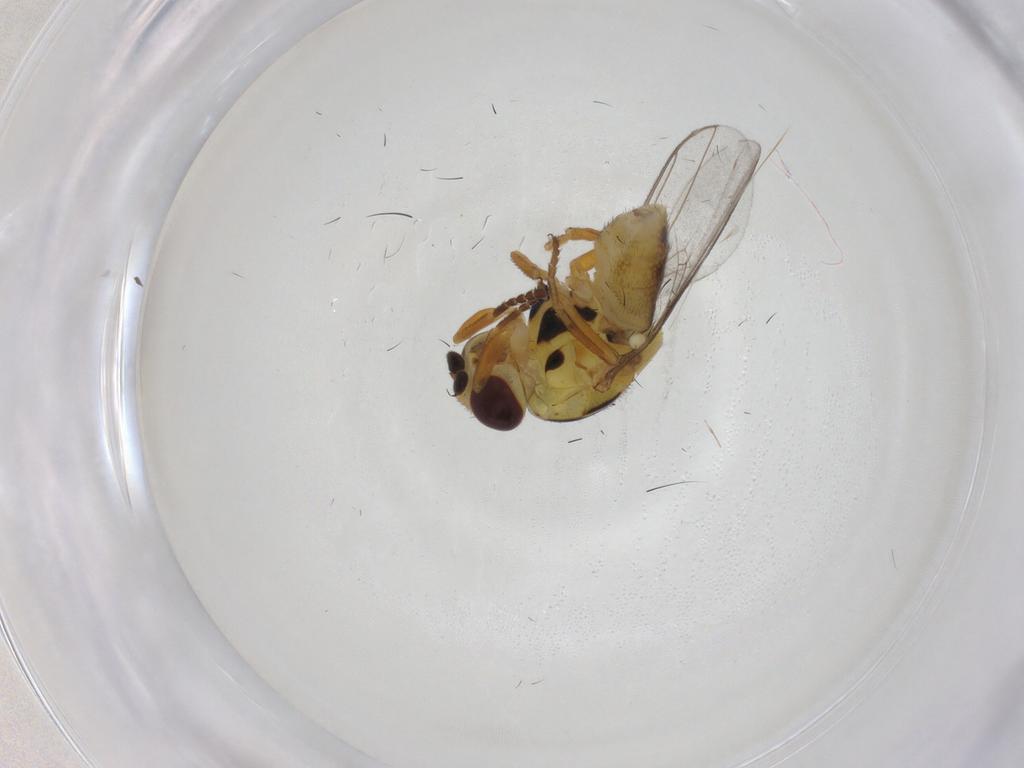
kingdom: Animalia
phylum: Arthropoda
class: Insecta
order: Diptera
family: Chloropidae
